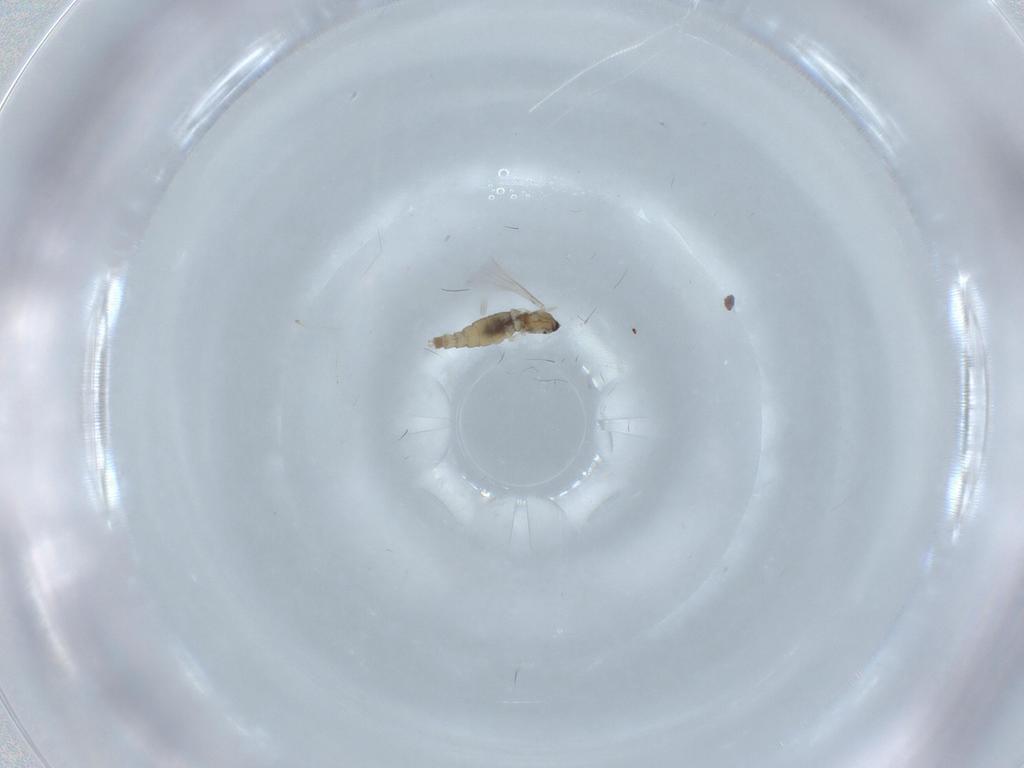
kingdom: Animalia
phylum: Arthropoda
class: Insecta
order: Diptera
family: Cecidomyiidae
